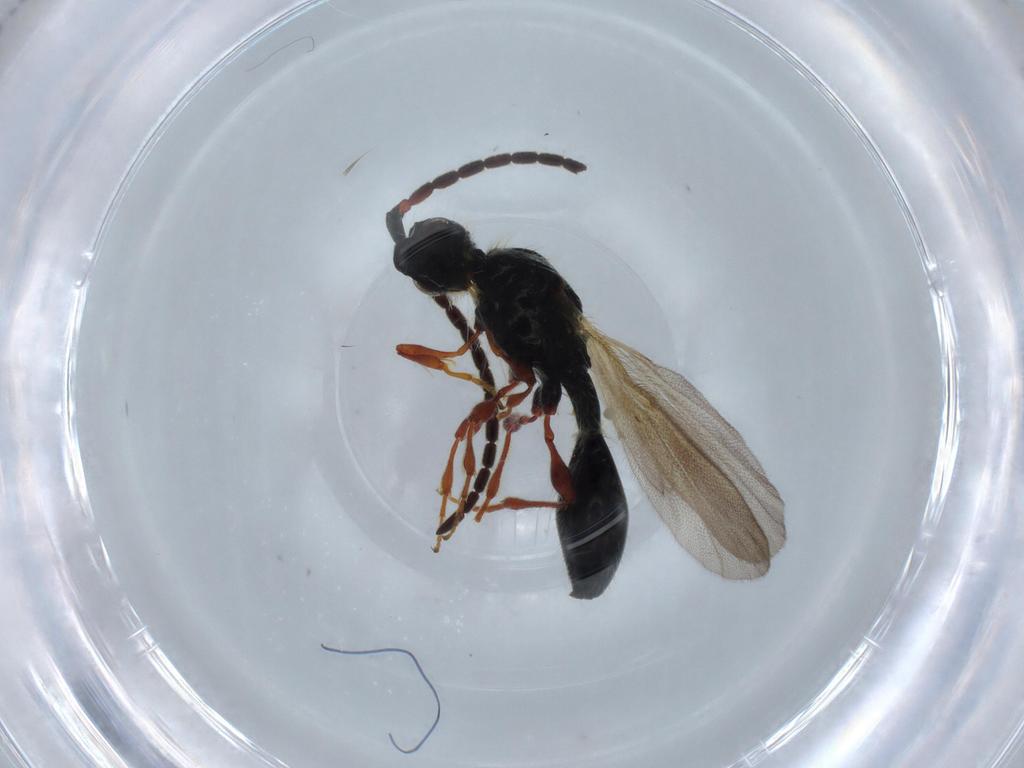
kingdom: Animalia
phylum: Arthropoda
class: Insecta
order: Hymenoptera
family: Diapriidae
